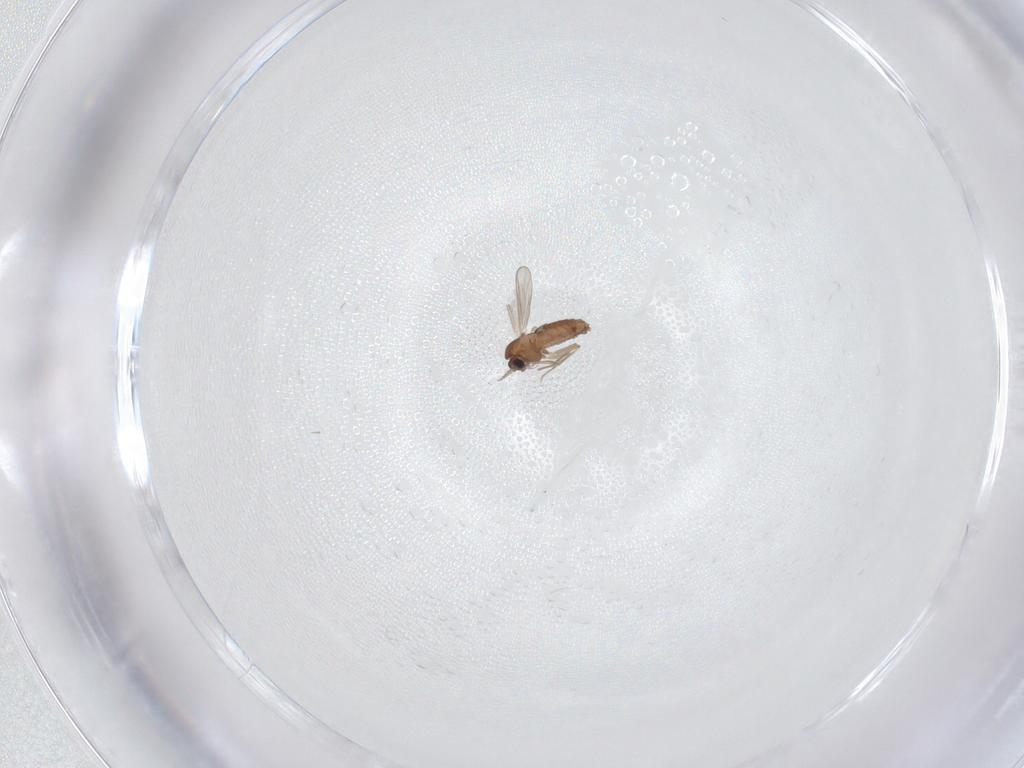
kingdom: Animalia
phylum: Arthropoda
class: Insecta
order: Diptera
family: Chironomidae
